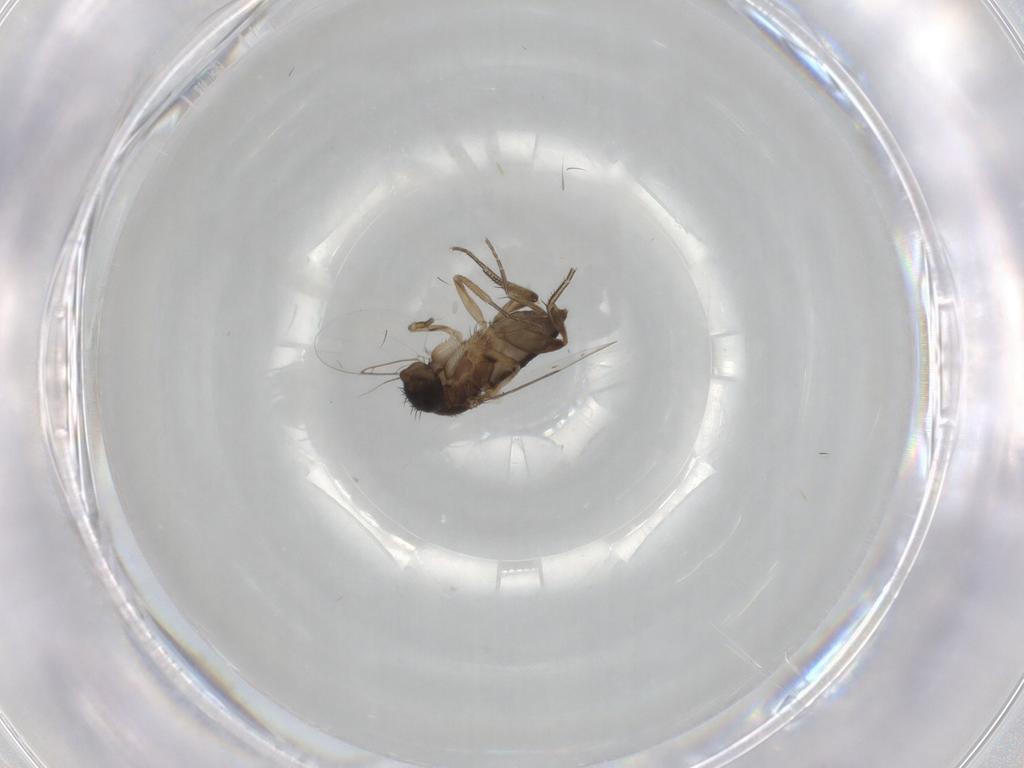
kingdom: Animalia
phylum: Arthropoda
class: Insecta
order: Diptera
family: Phoridae
